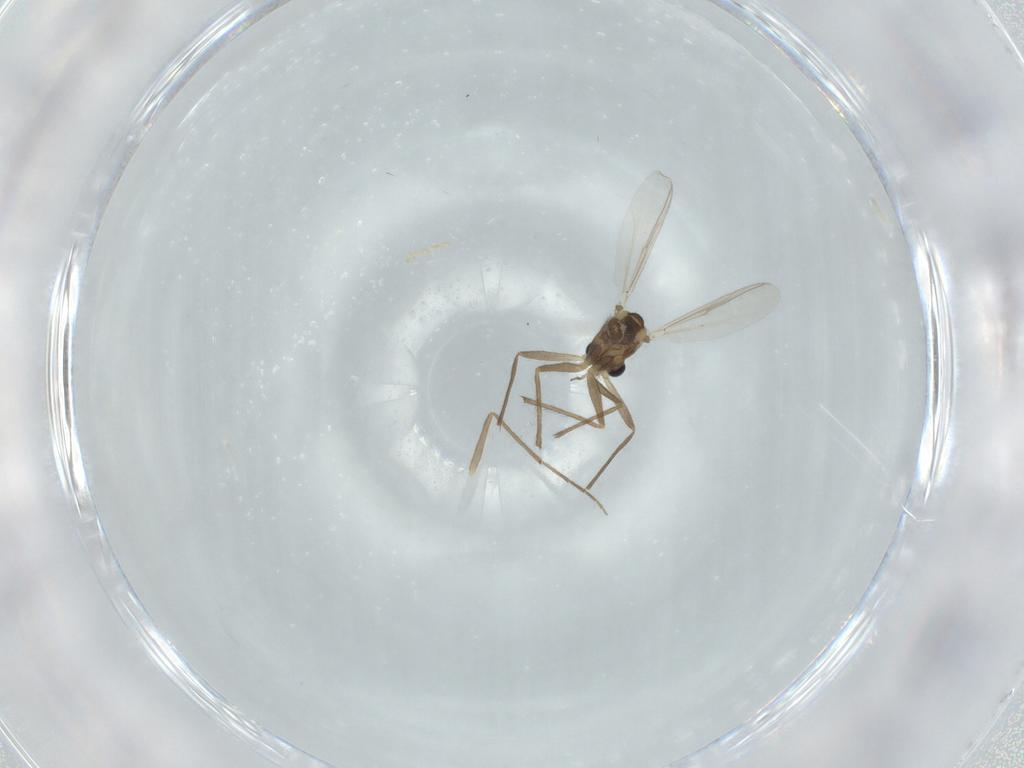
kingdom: Animalia
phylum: Arthropoda
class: Insecta
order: Diptera
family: Chironomidae
